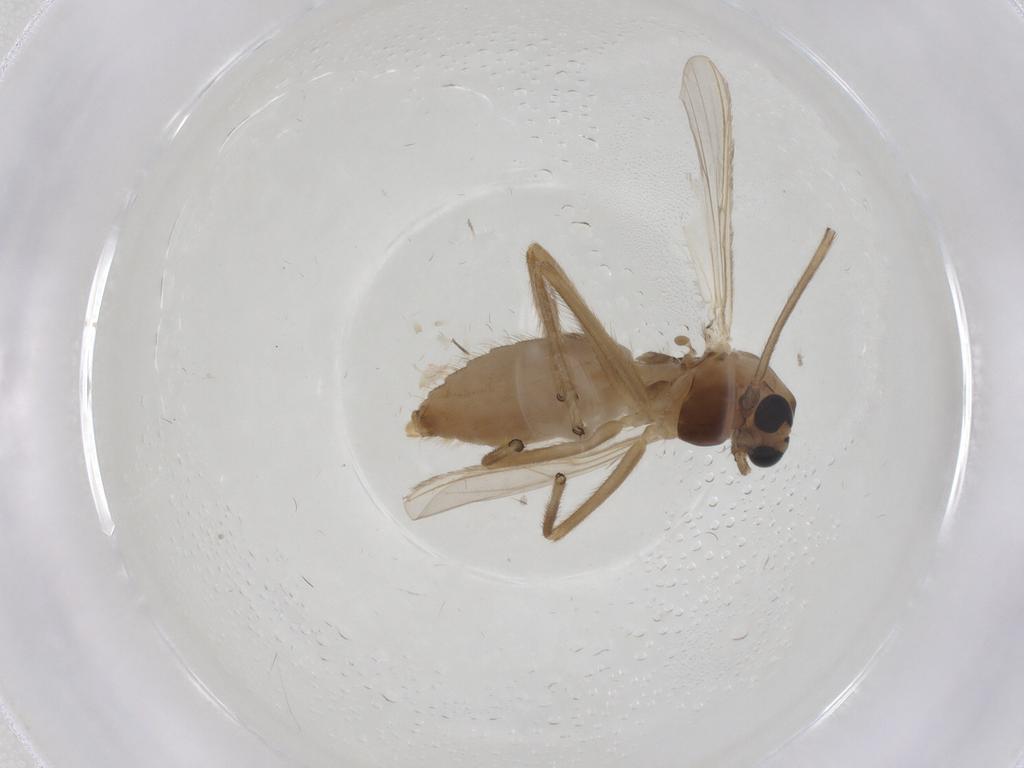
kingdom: Animalia
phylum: Arthropoda
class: Insecta
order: Diptera
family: Chironomidae
